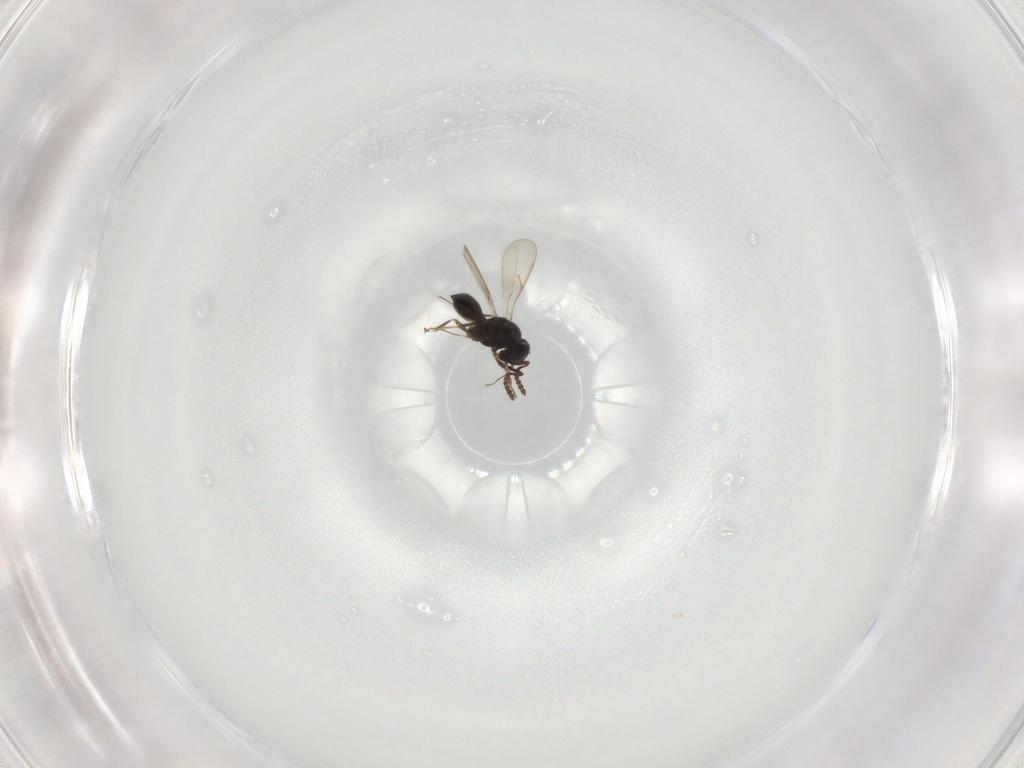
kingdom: Animalia
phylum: Arthropoda
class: Insecta
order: Hymenoptera
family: Scelionidae
